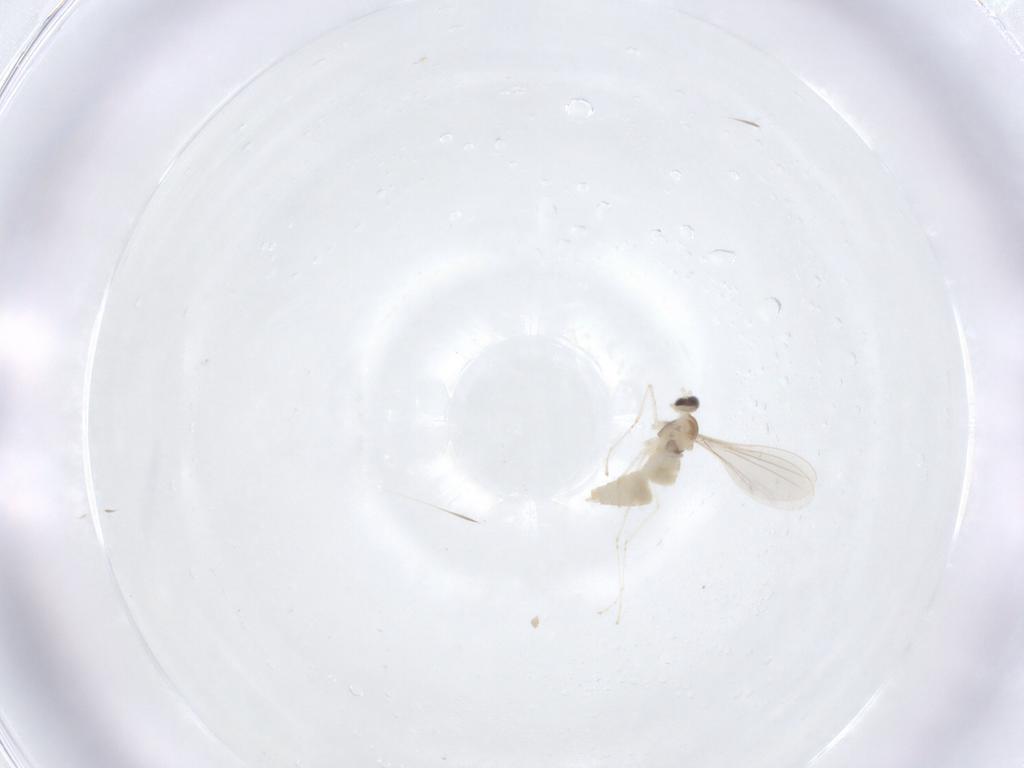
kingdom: Animalia
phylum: Arthropoda
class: Insecta
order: Diptera
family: Cecidomyiidae
